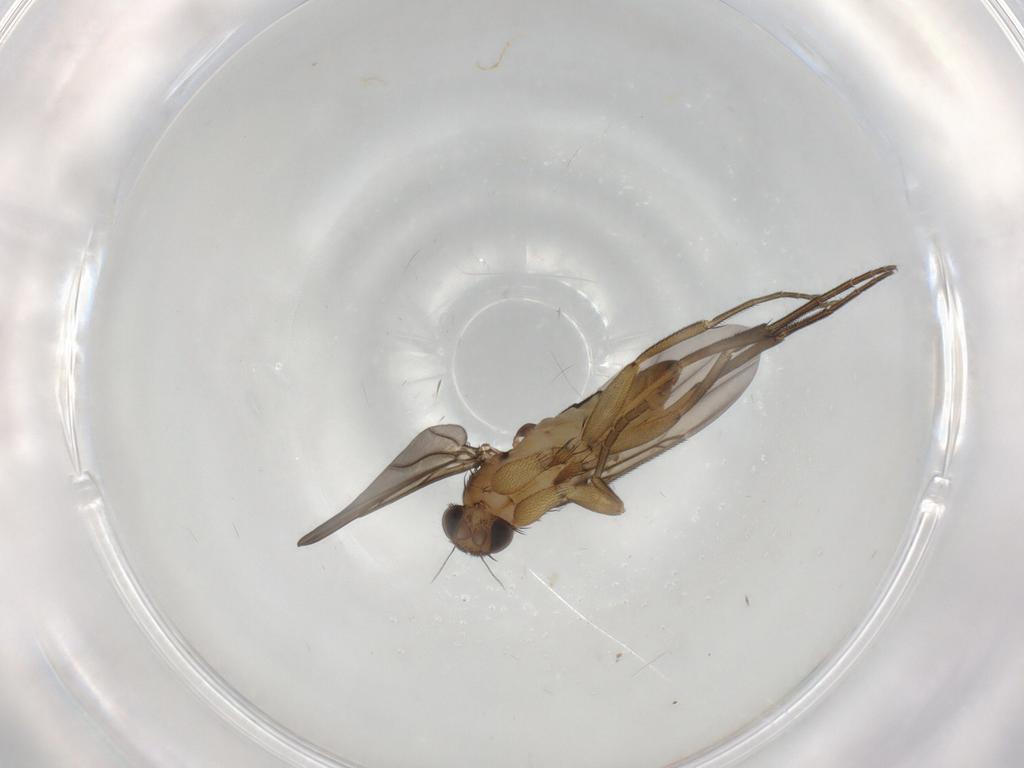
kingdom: Animalia
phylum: Arthropoda
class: Insecta
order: Diptera
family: Phoridae
